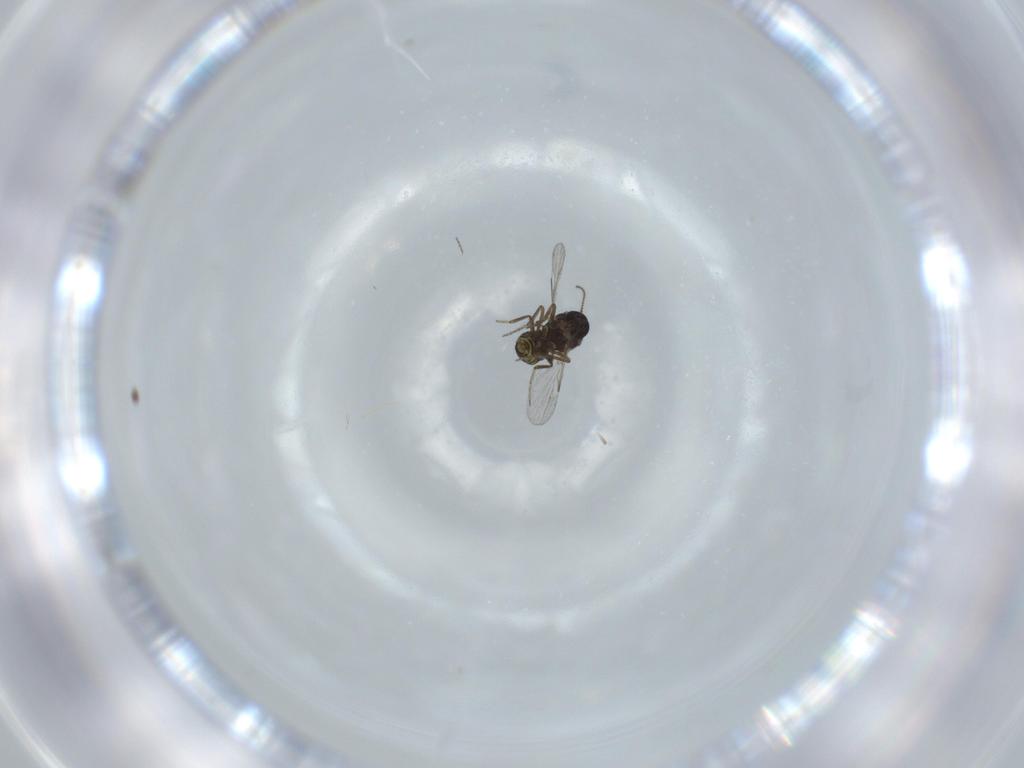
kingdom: Animalia
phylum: Arthropoda
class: Insecta
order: Diptera
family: Ceratopogonidae
